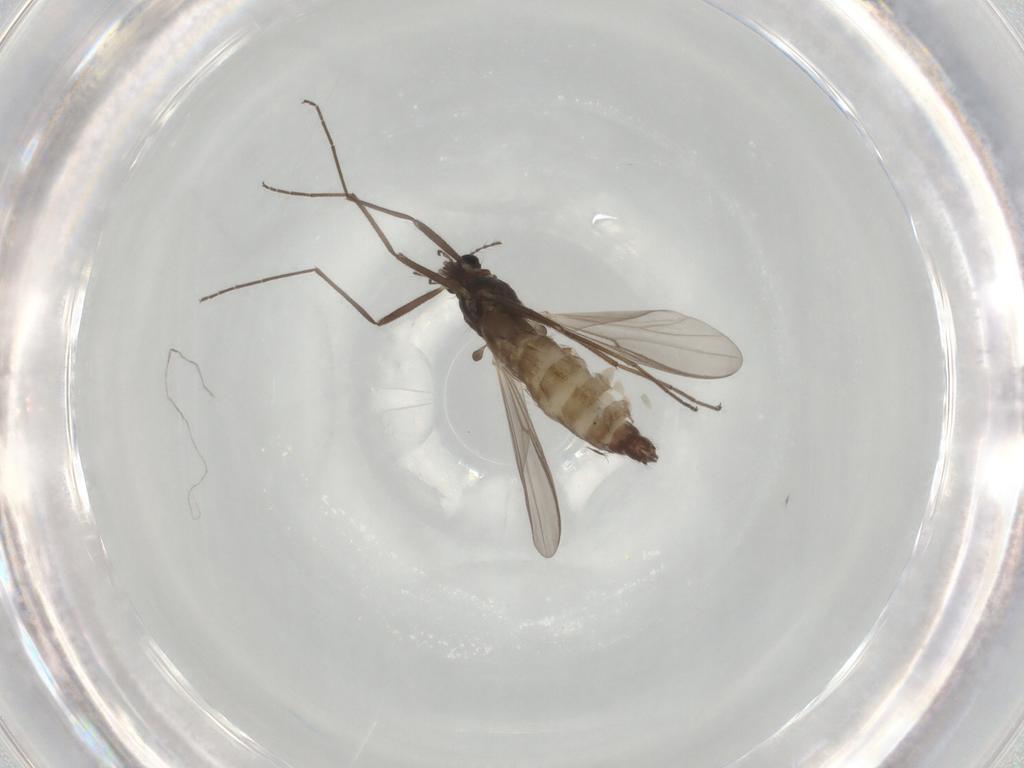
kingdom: Animalia
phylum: Arthropoda
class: Insecta
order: Diptera
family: Chironomidae
